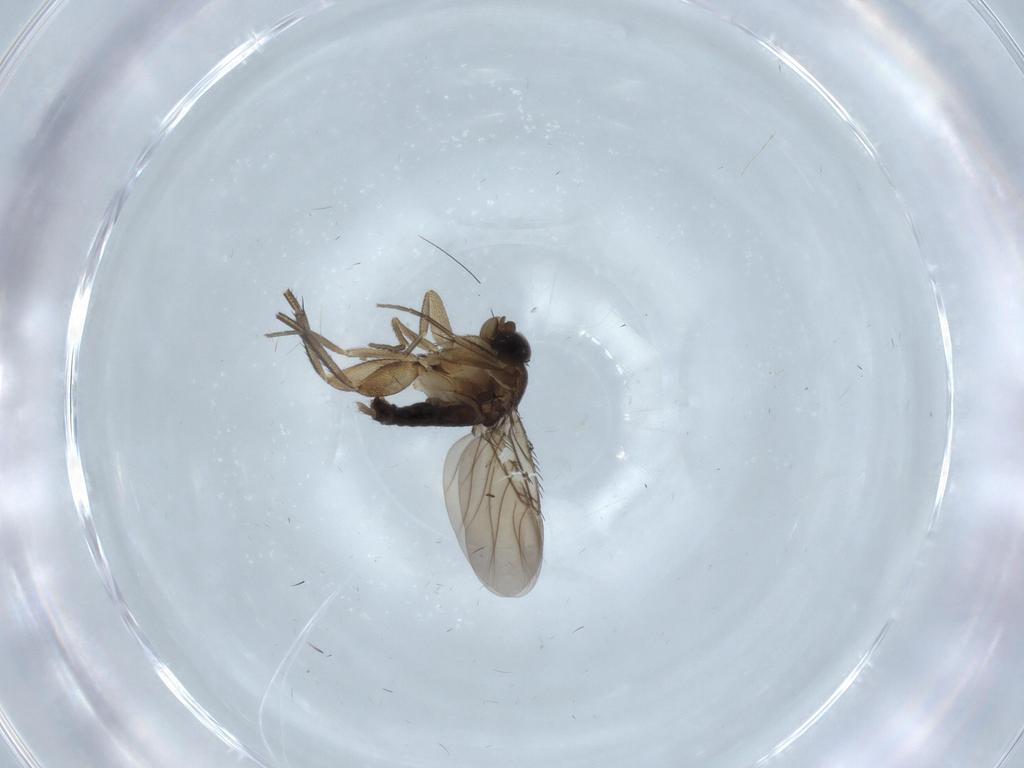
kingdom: Animalia
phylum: Arthropoda
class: Insecta
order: Diptera
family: Phoridae
